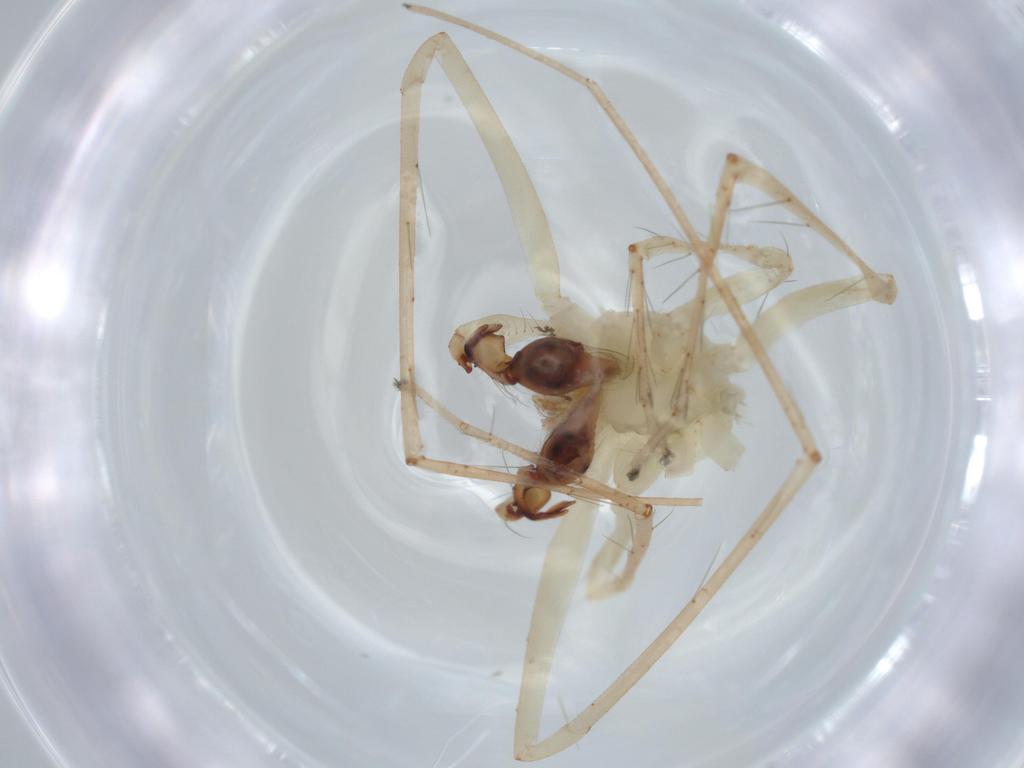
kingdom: Animalia
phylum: Arthropoda
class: Arachnida
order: Araneae
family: Anyphaenidae
